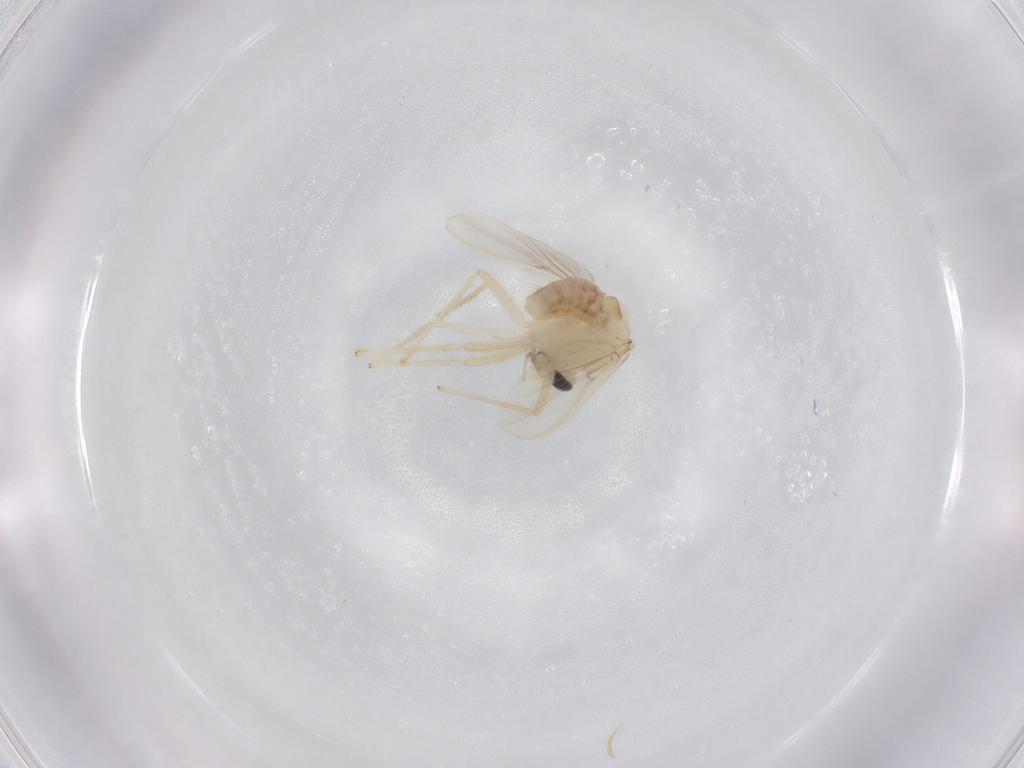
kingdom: Animalia
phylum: Arthropoda
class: Insecta
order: Diptera
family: Chironomidae
